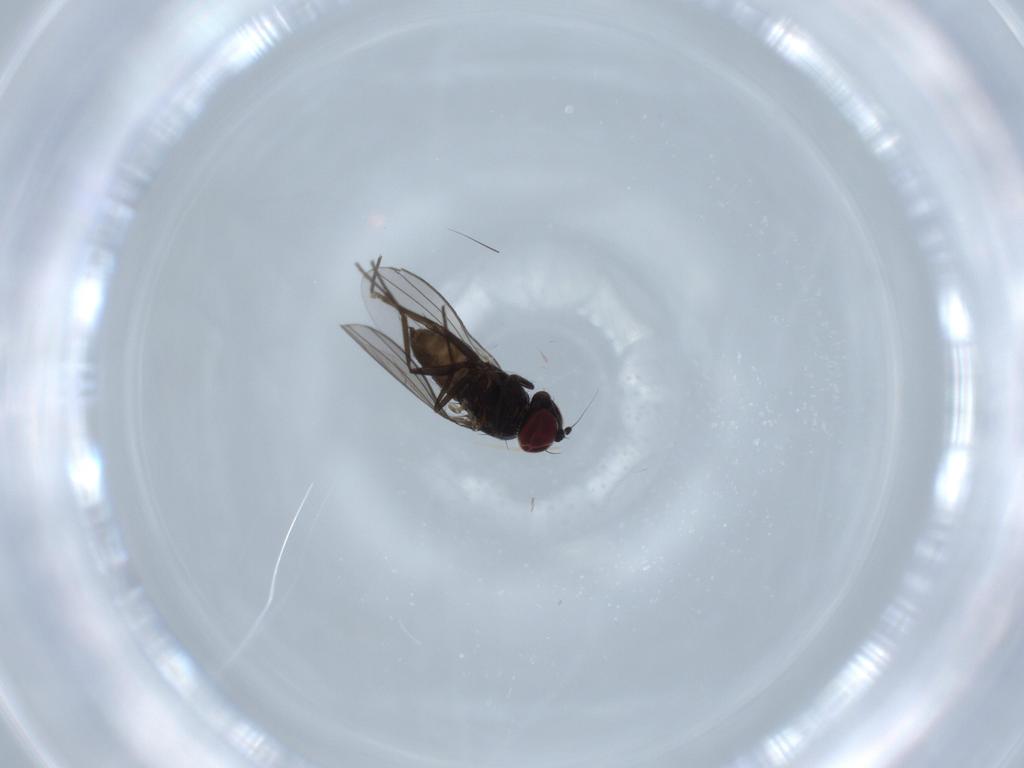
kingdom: Animalia
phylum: Arthropoda
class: Insecta
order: Diptera
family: Dolichopodidae
